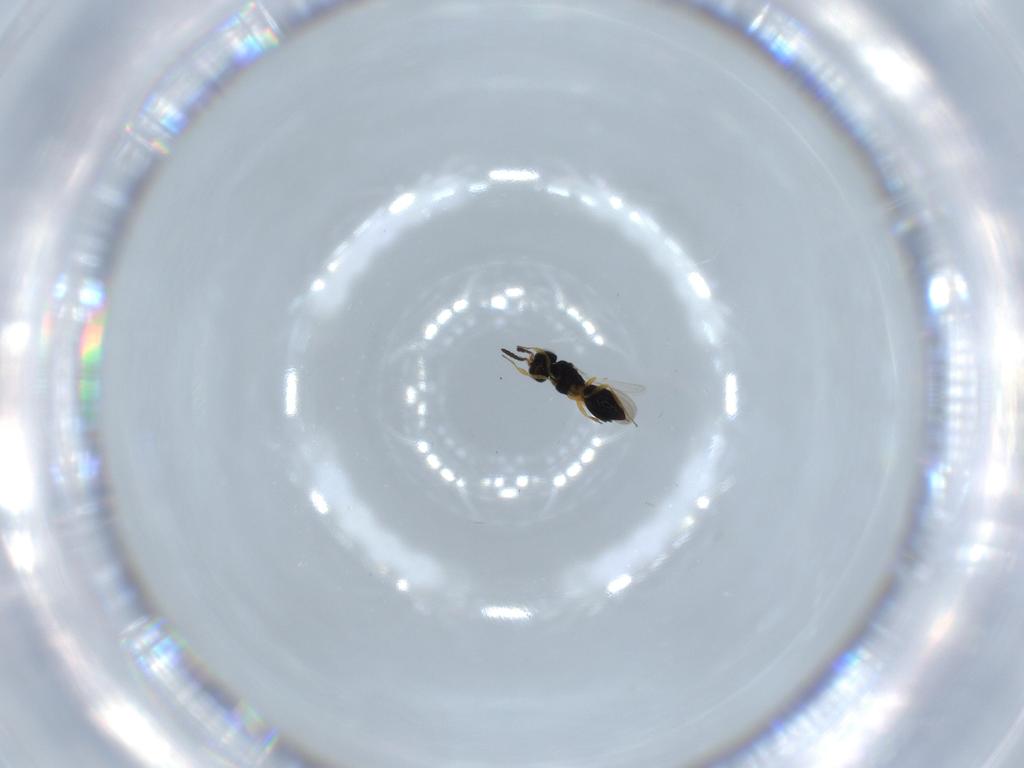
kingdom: Animalia
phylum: Arthropoda
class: Insecta
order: Hymenoptera
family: Scelionidae
